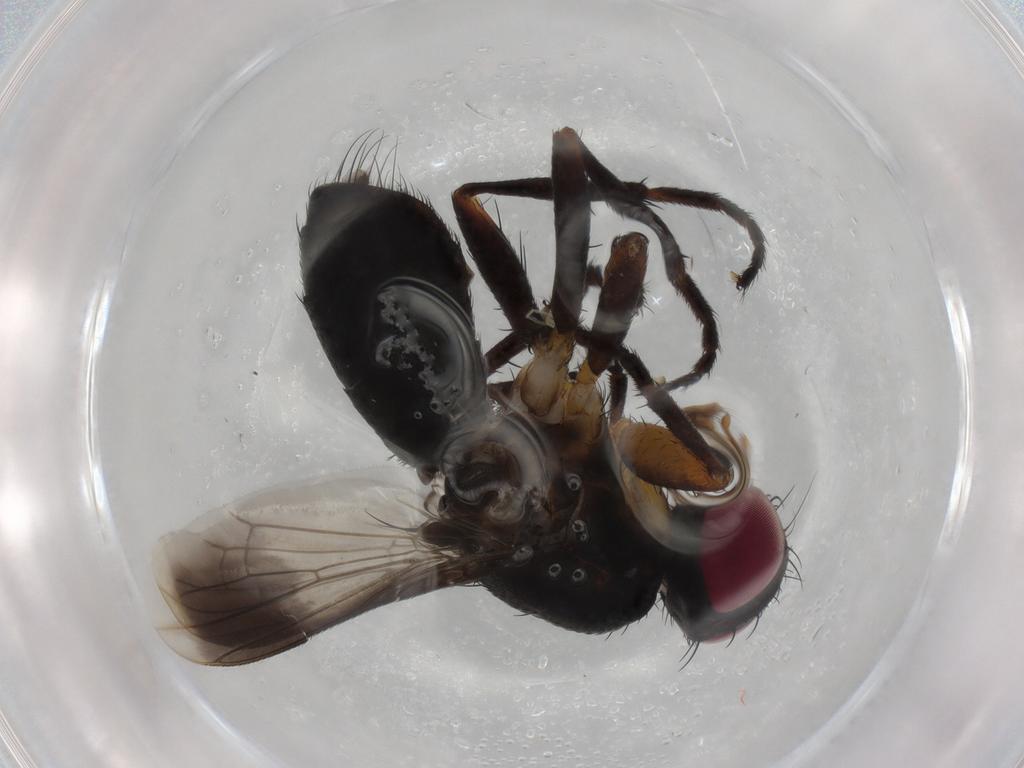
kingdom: Animalia
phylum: Arthropoda
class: Insecta
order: Diptera
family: Calliphoridae
